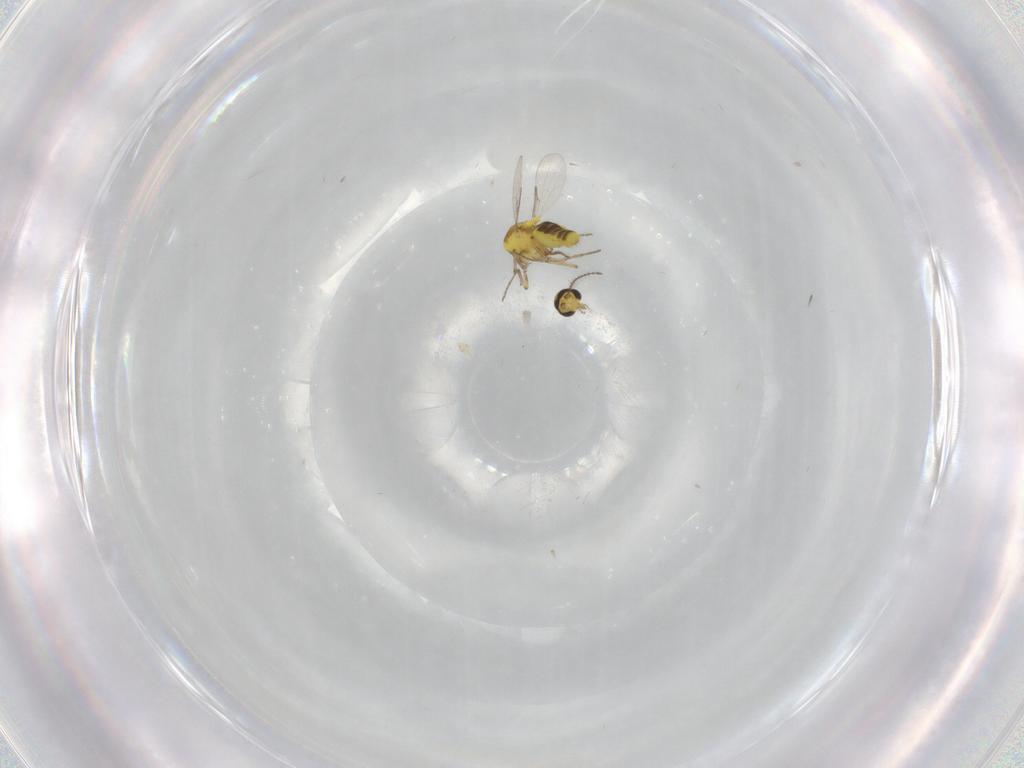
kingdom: Animalia
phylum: Arthropoda
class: Insecta
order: Diptera
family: Ceratopogonidae
